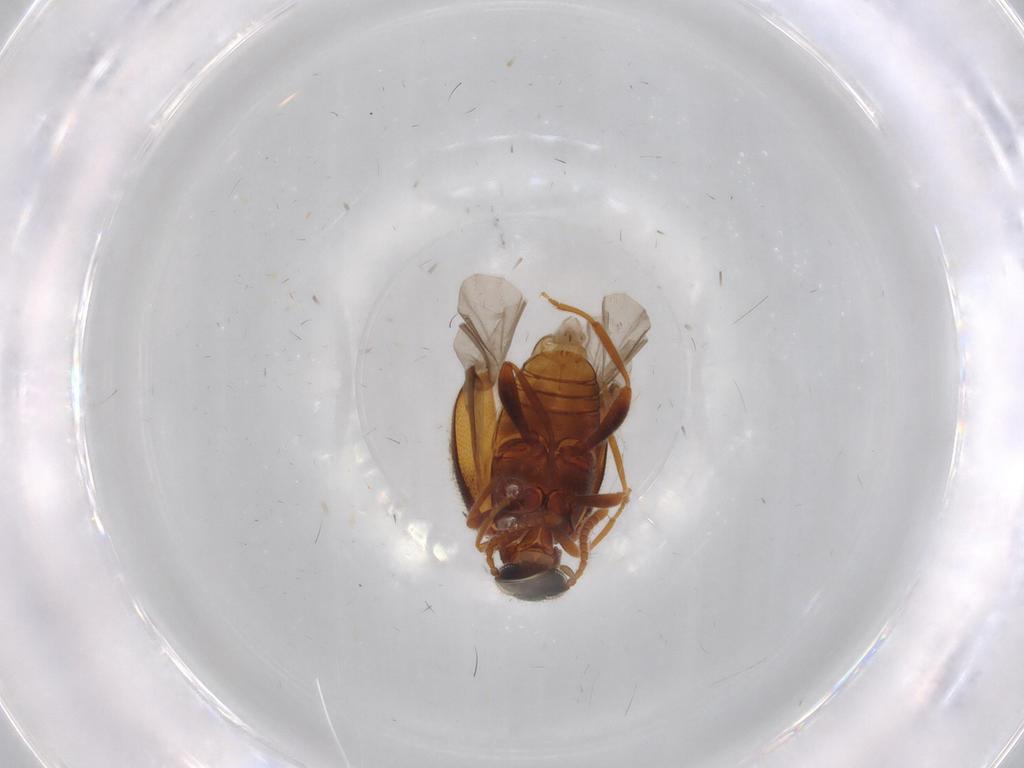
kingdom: Animalia
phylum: Arthropoda
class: Insecta
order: Coleoptera
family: Aderidae
